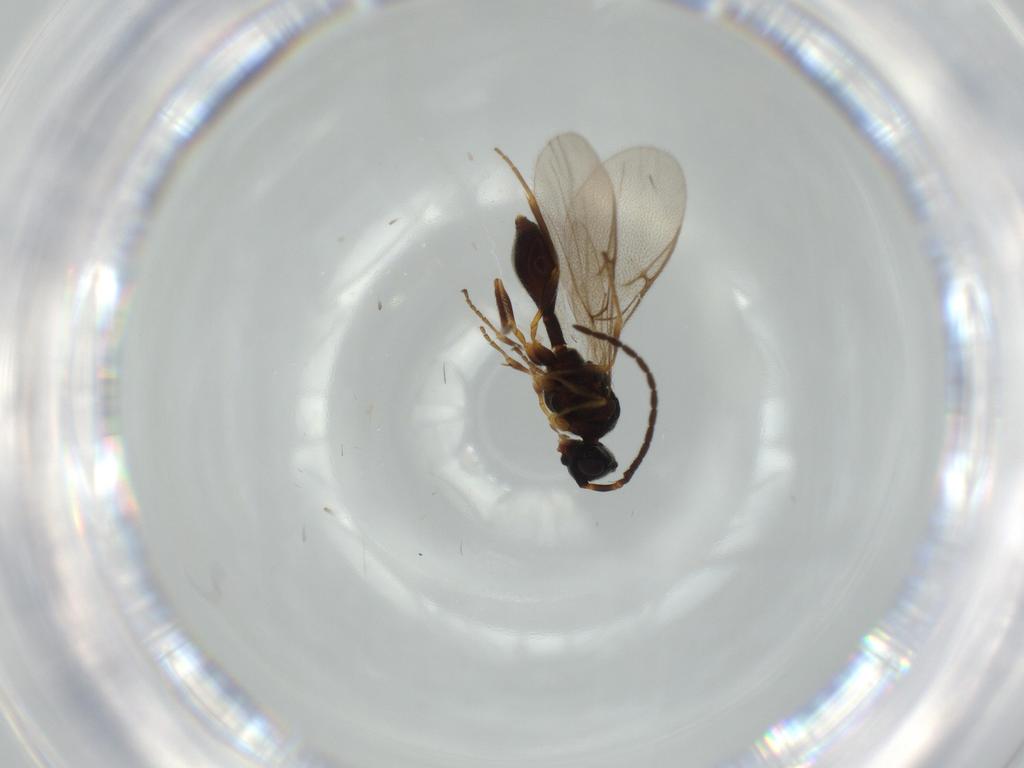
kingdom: Animalia
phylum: Arthropoda
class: Insecta
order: Hymenoptera
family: Diapriidae
